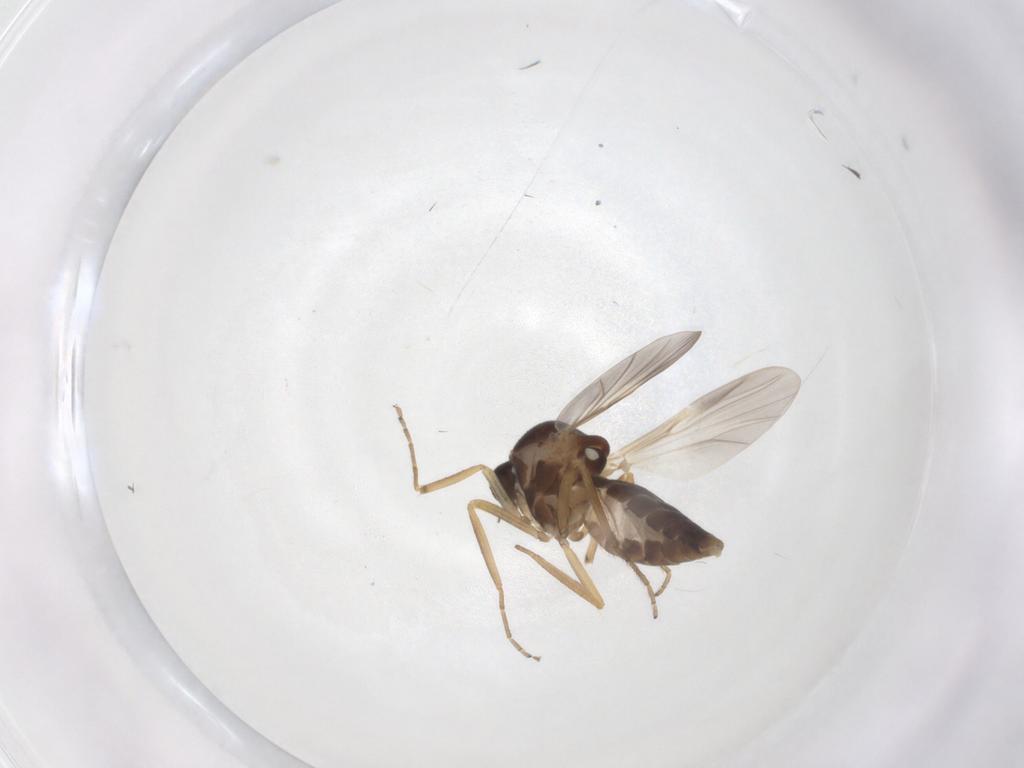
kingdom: Animalia
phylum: Arthropoda
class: Insecta
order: Diptera
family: Ceratopogonidae
